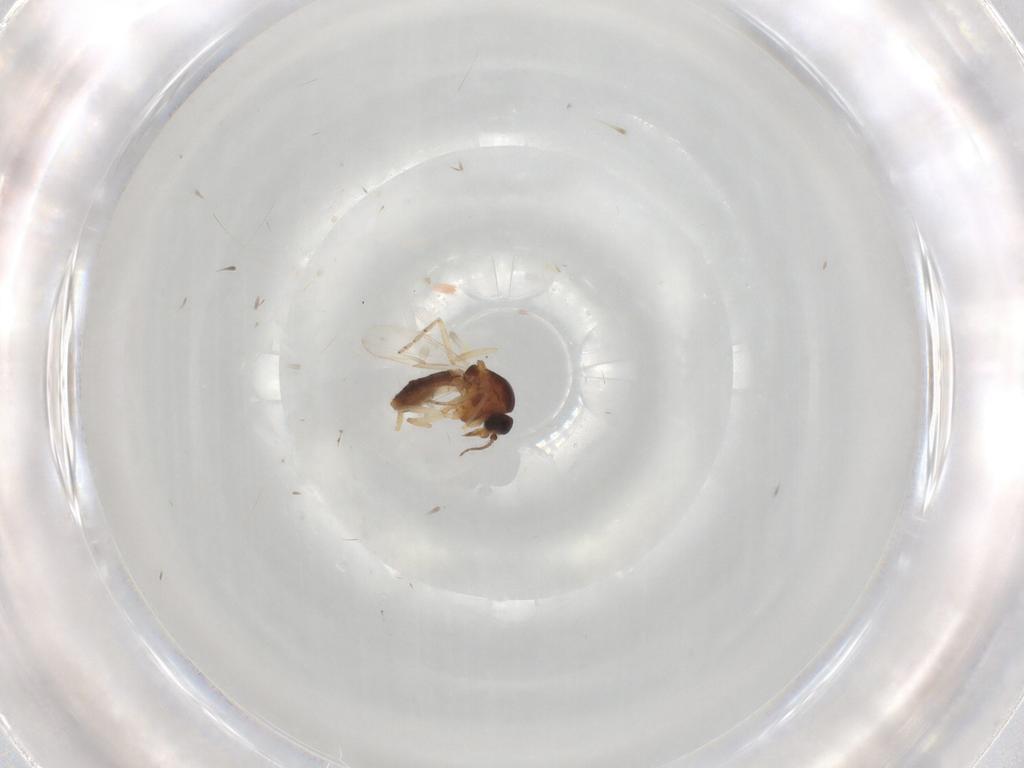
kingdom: Animalia
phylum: Arthropoda
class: Insecta
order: Diptera
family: Ceratopogonidae
